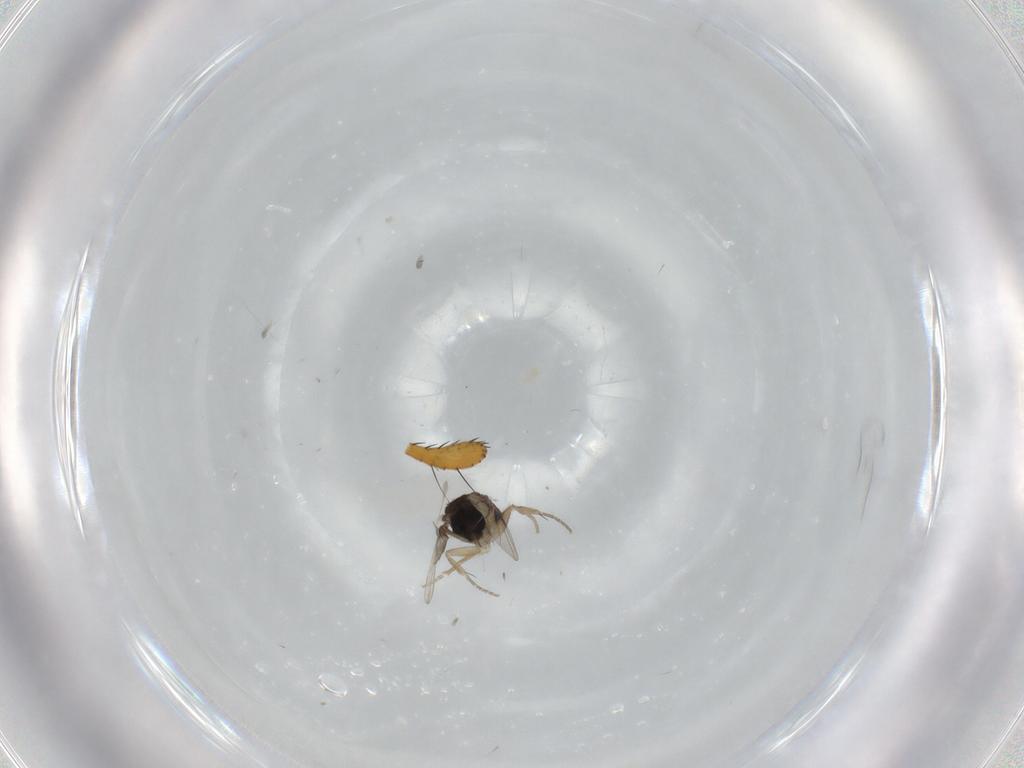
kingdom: Animalia
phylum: Arthropoda
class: Insecta
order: Diptera
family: Phoridae
